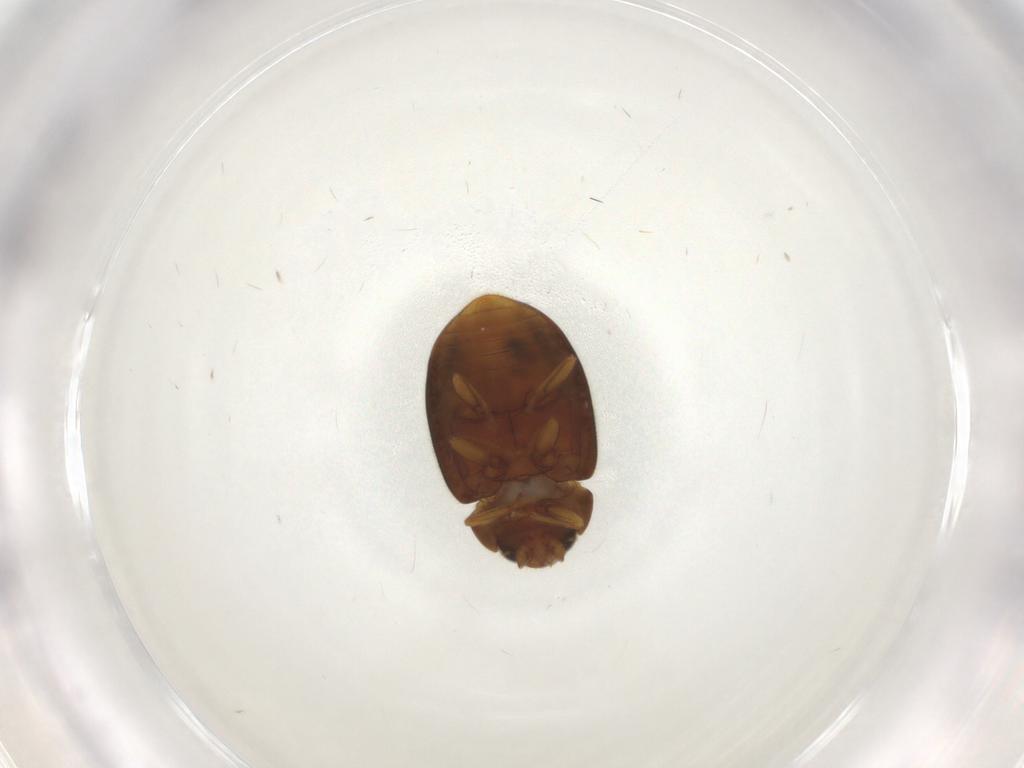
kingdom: Animalia
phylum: Arthropoda
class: Insecta
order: Coleoptera
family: Coccinellidae
